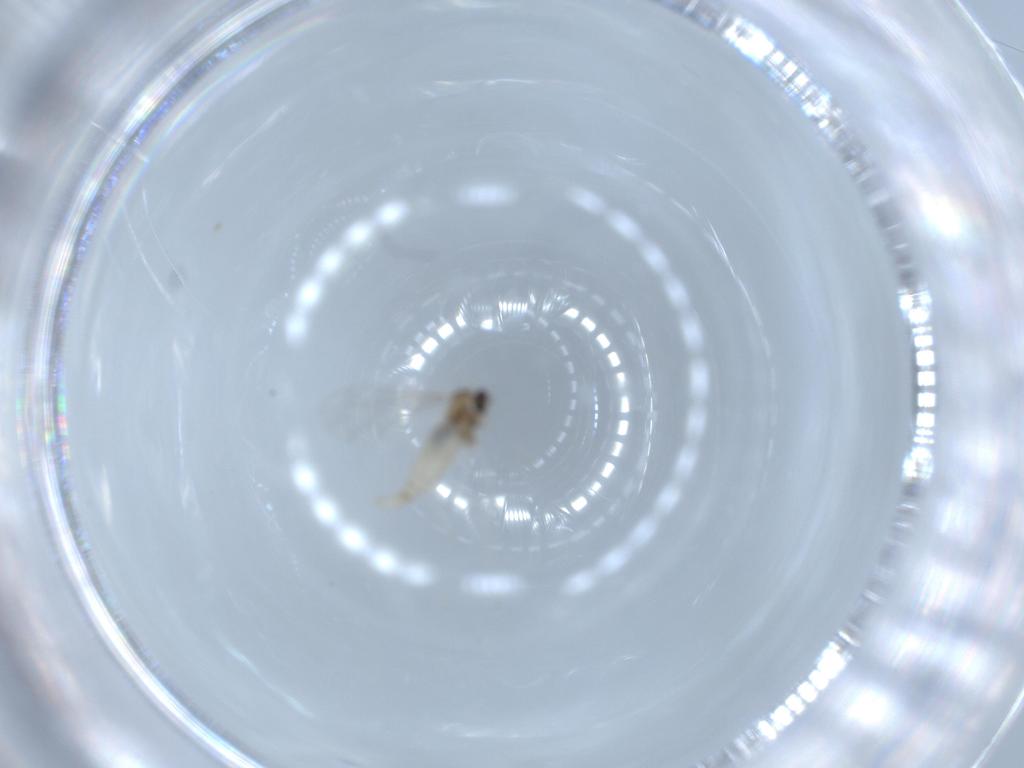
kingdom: Animalia
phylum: Arthropoda
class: Insecta
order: Diptera
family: Cecidomyiidae
